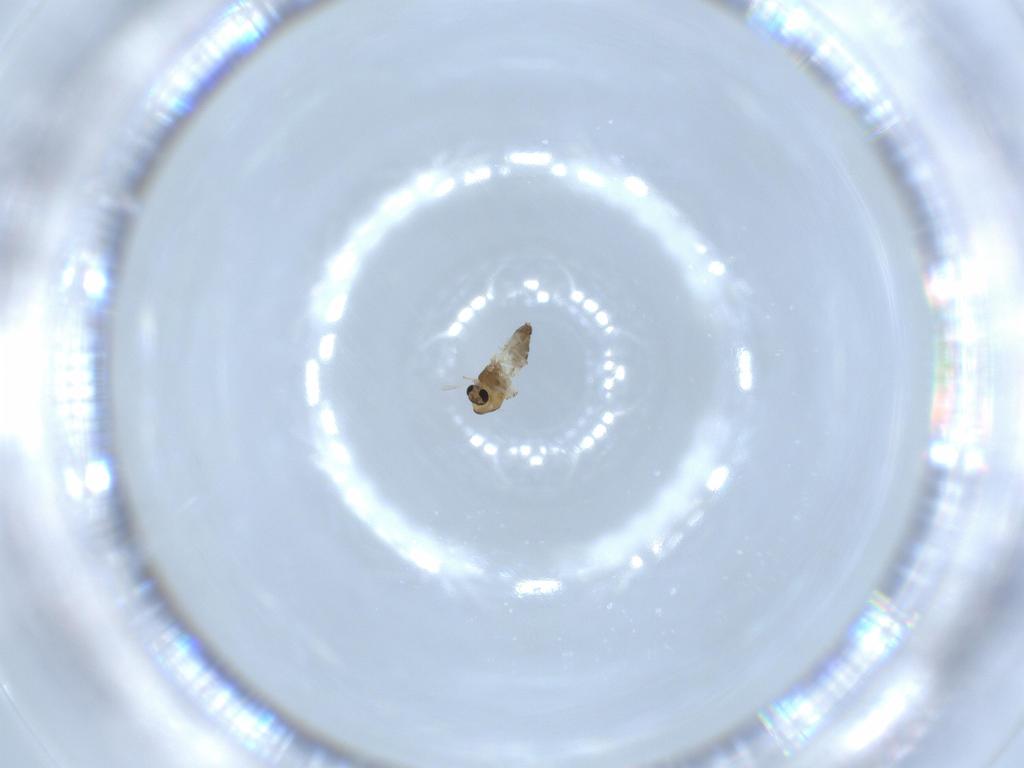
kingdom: Animalia
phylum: Arthropoda
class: Insecta
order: Diptera
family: Chironomidae
